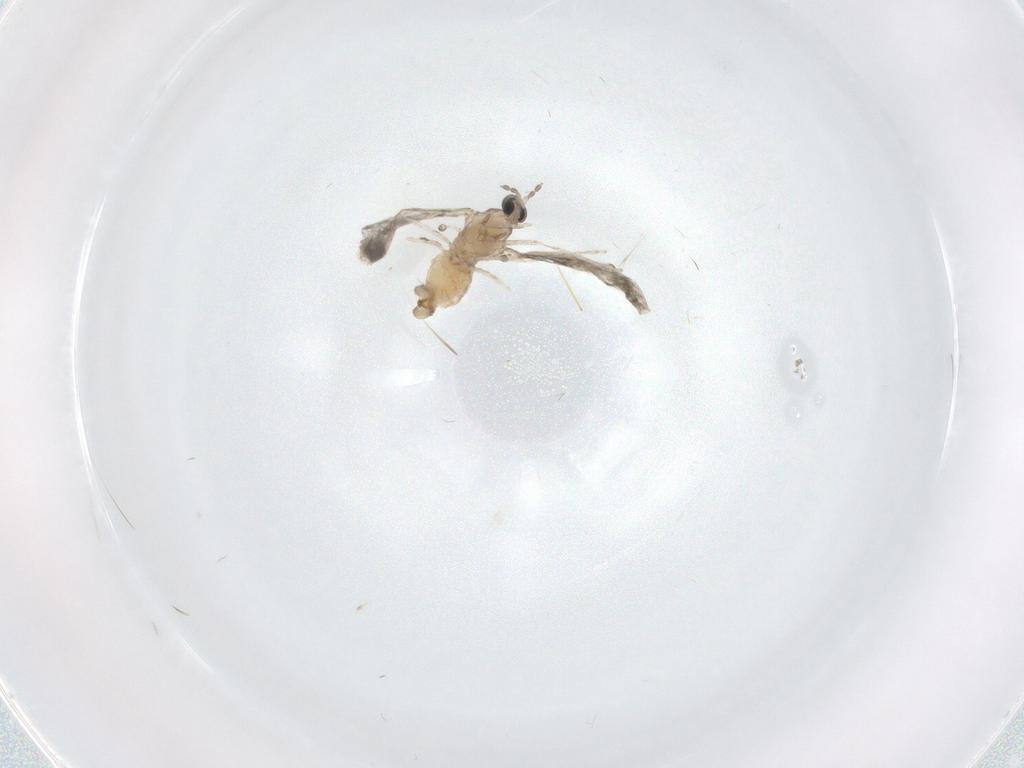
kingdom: Animalia
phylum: Arthropoda
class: Insecta
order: Diptera
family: Cecidomyiidae
